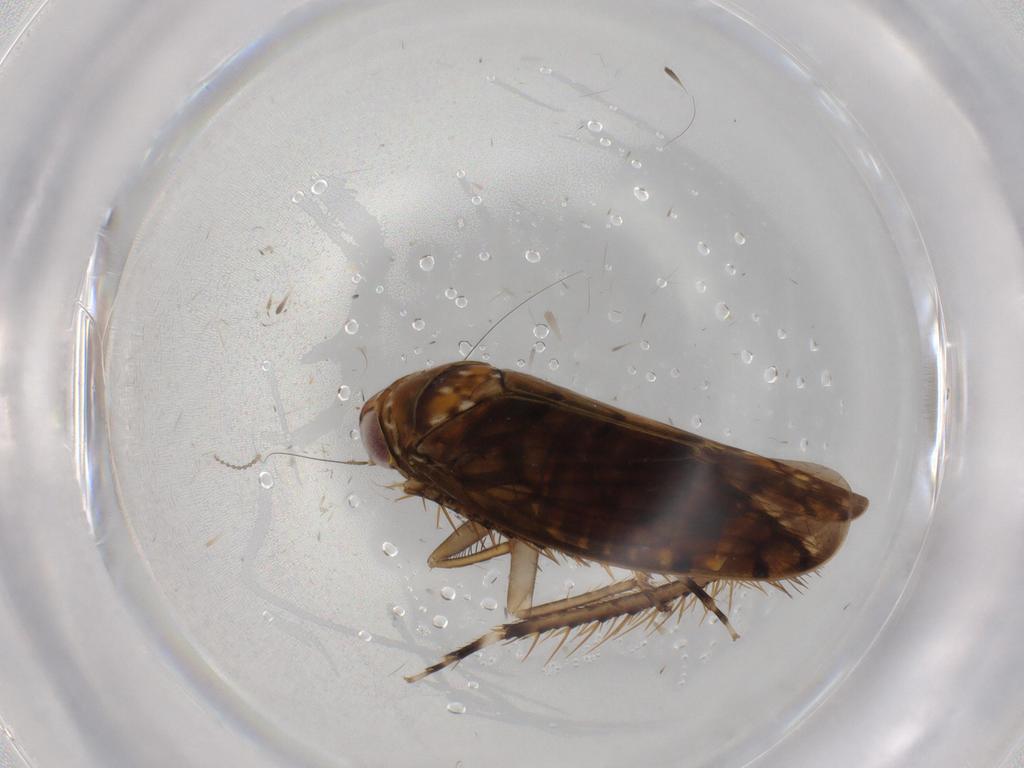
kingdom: Animalia
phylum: Arthropoda
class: Insecta
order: Hemiptera
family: Cicadellidae
